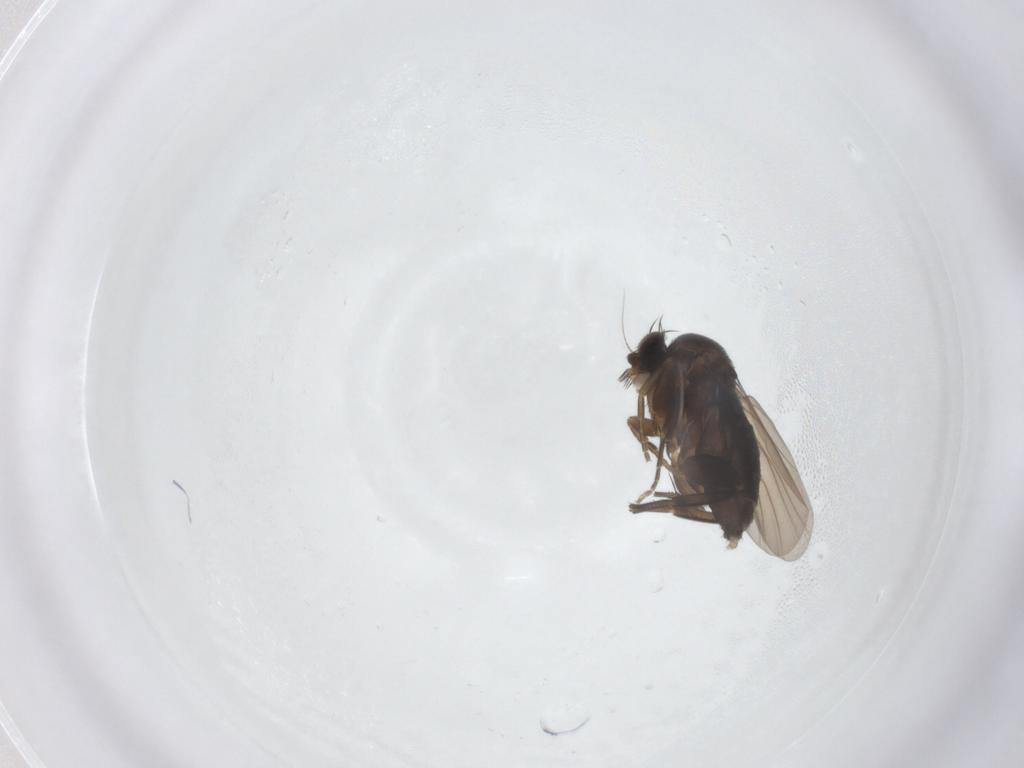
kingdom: Animalia
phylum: Arthropoda
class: Insecta
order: Diptera
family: Phoridae
